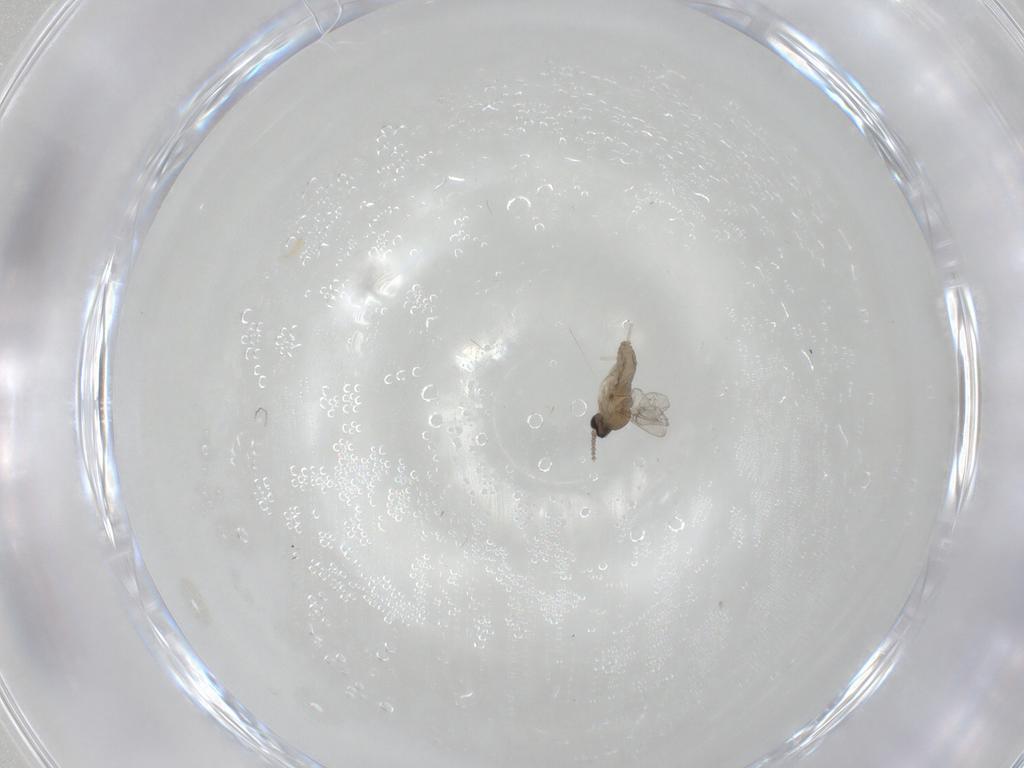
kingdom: Animalia
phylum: Arthropoda
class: Insecta
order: Diptera
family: Cecidomyiidae
